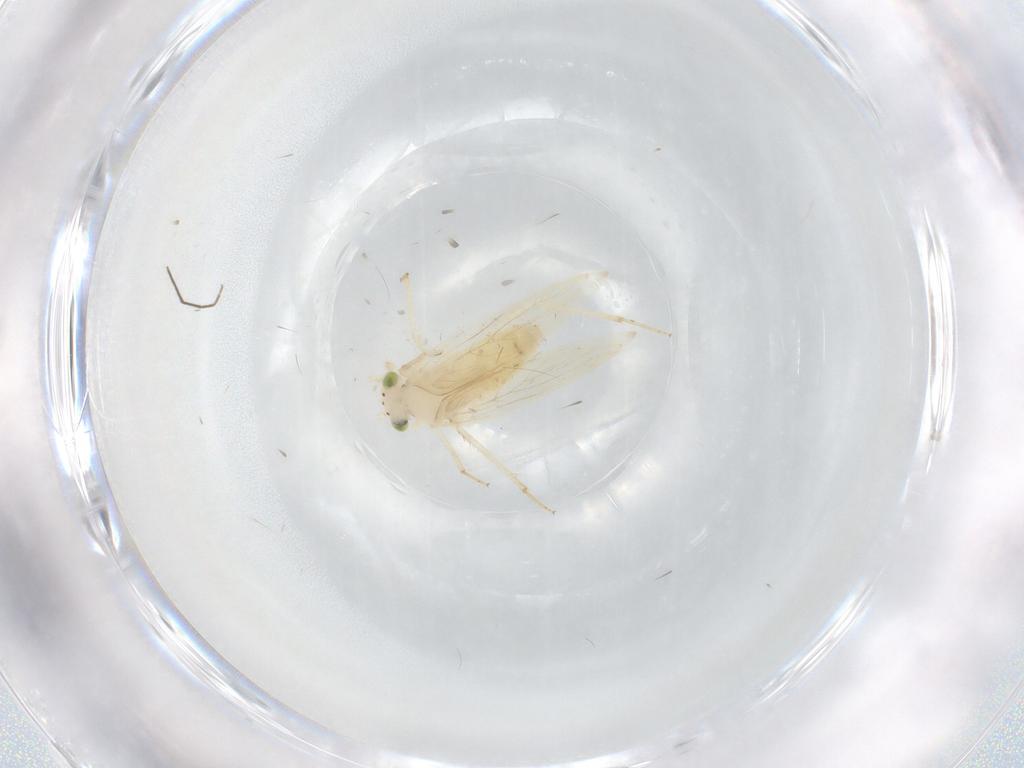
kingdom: Animalia
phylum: Arthropoda
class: Insecta
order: Psocodea
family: Lepidopsocidae
